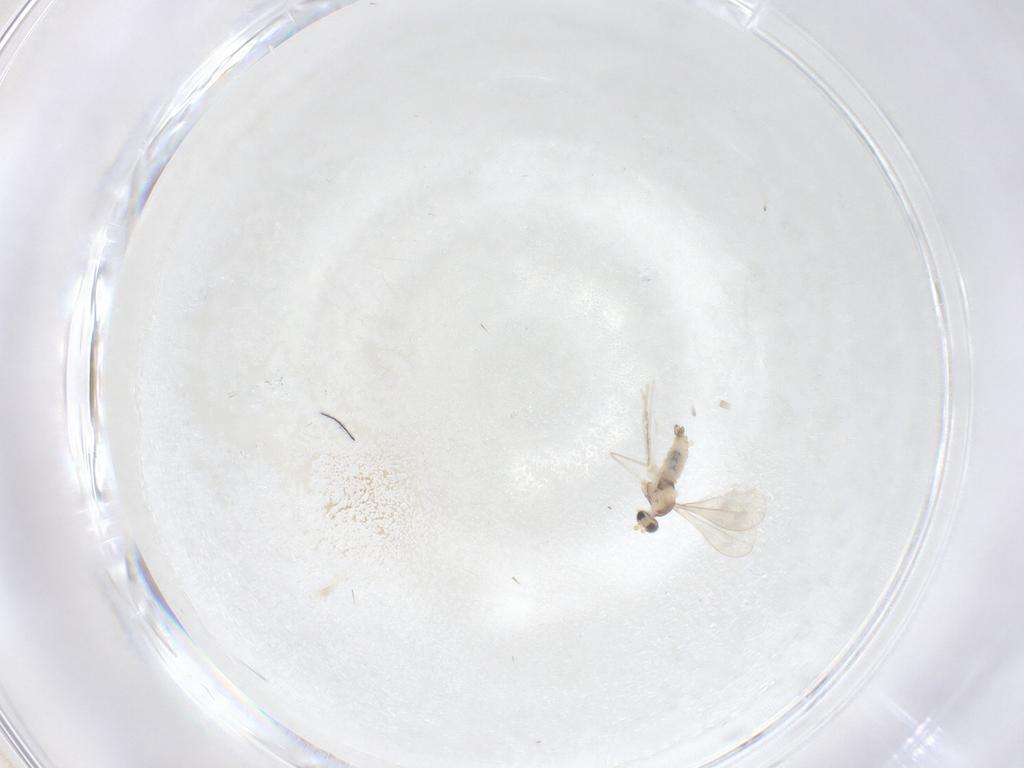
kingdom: Animalia
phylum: Arthropoda
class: Insecta
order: Diptera
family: Cecidomyiidae
